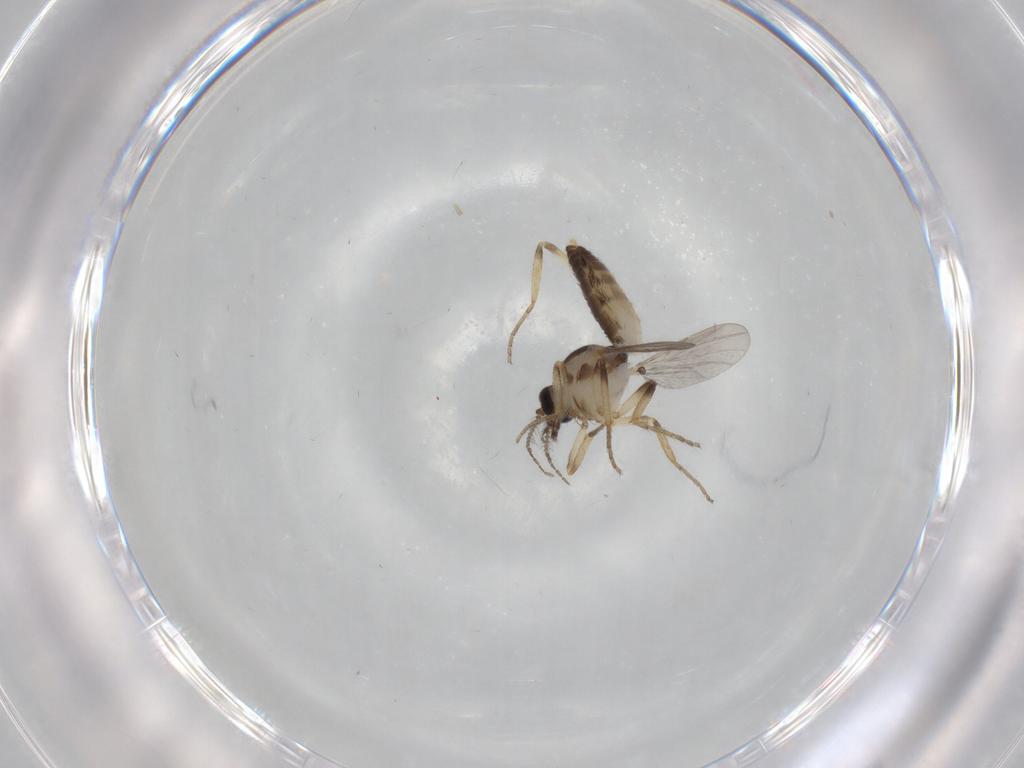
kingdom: Animalia
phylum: Arthropoda
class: Insecta
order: Diptera
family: Ceratopogonidae
